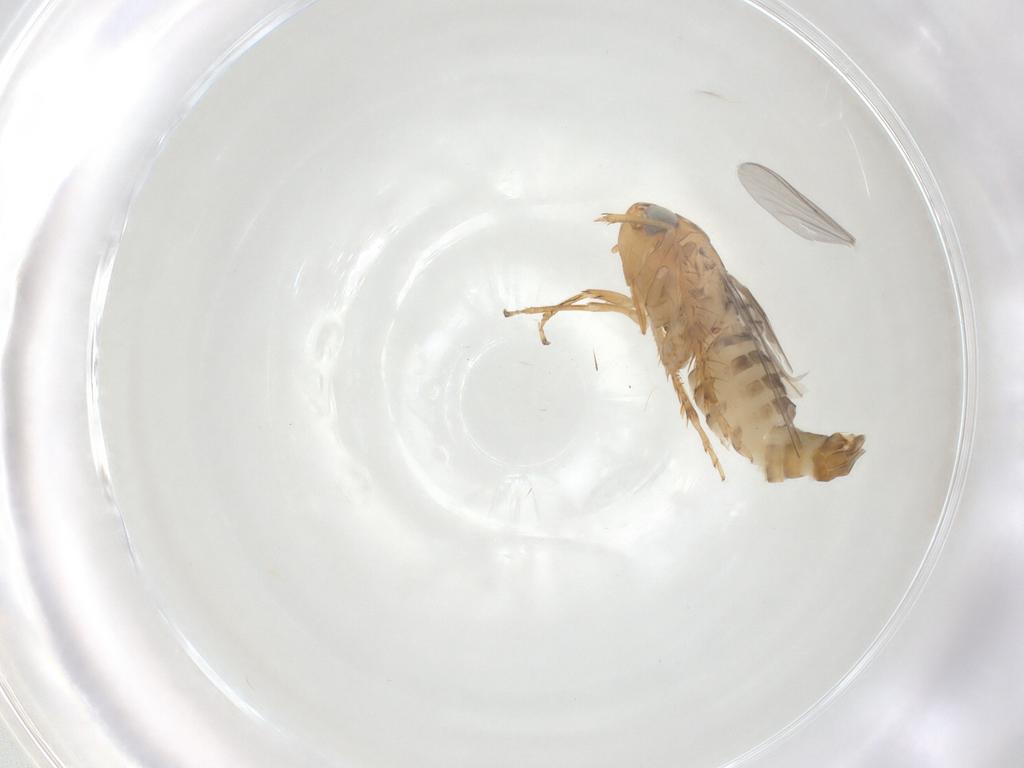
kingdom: Animalia
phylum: Arthropoda
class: Insecta
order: Hemiptera
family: Cicadellidae
